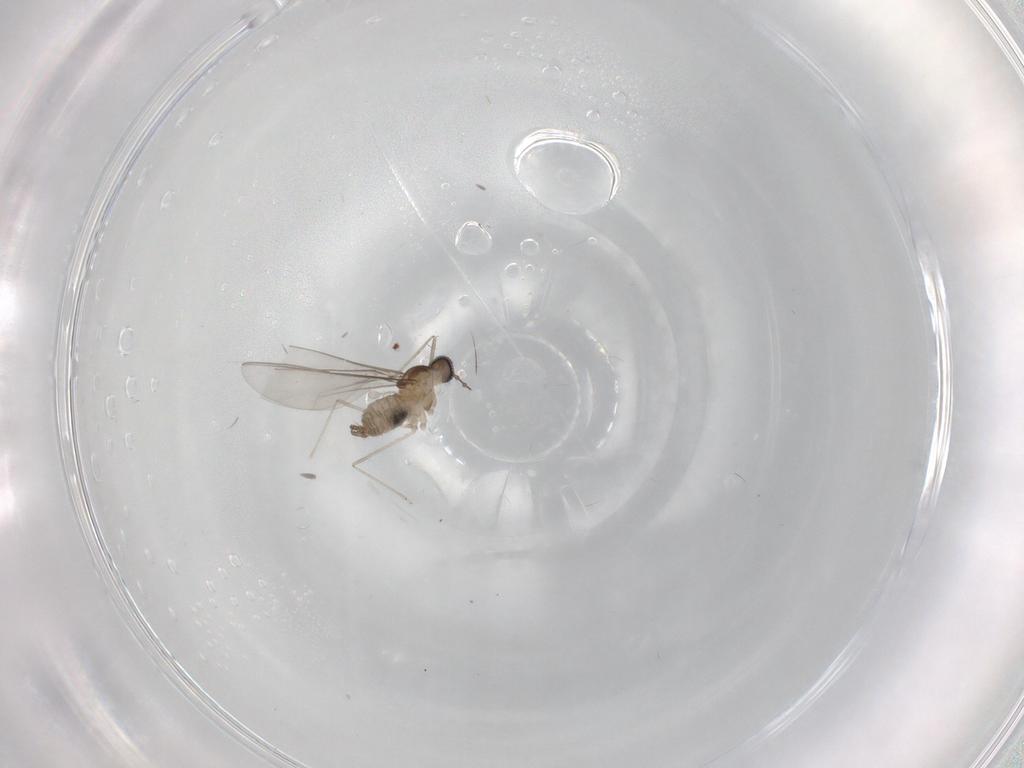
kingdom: Animalia
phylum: Arthropoda
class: Insecta
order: Diptera
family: Cecidomyiidae
